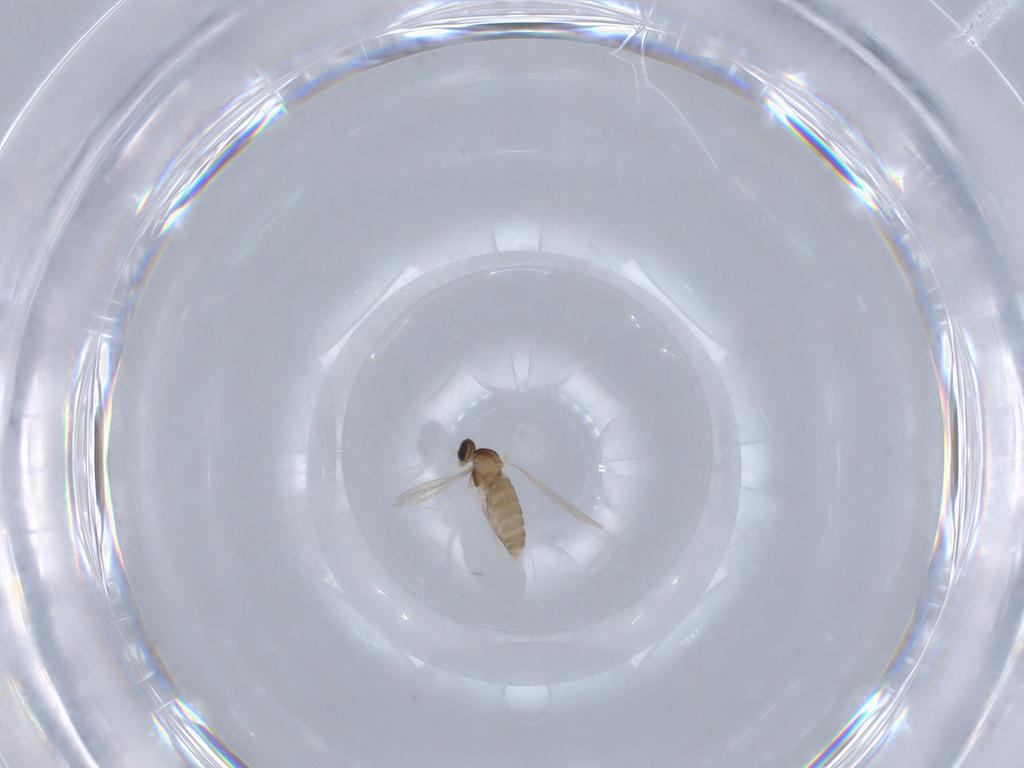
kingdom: Animalia
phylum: Arthropoda
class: Insecta
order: Diptera
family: Cecidomyiidae
